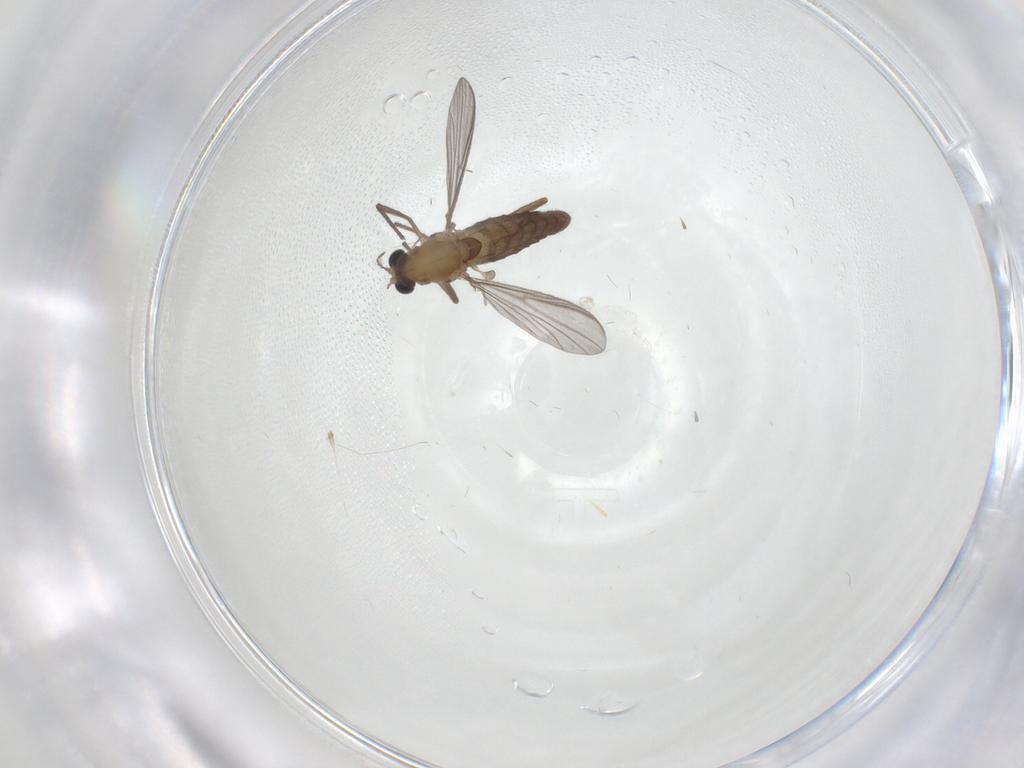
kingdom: Animalia
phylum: Arthropoda
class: Insecta
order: Diptera
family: Chironomidae
